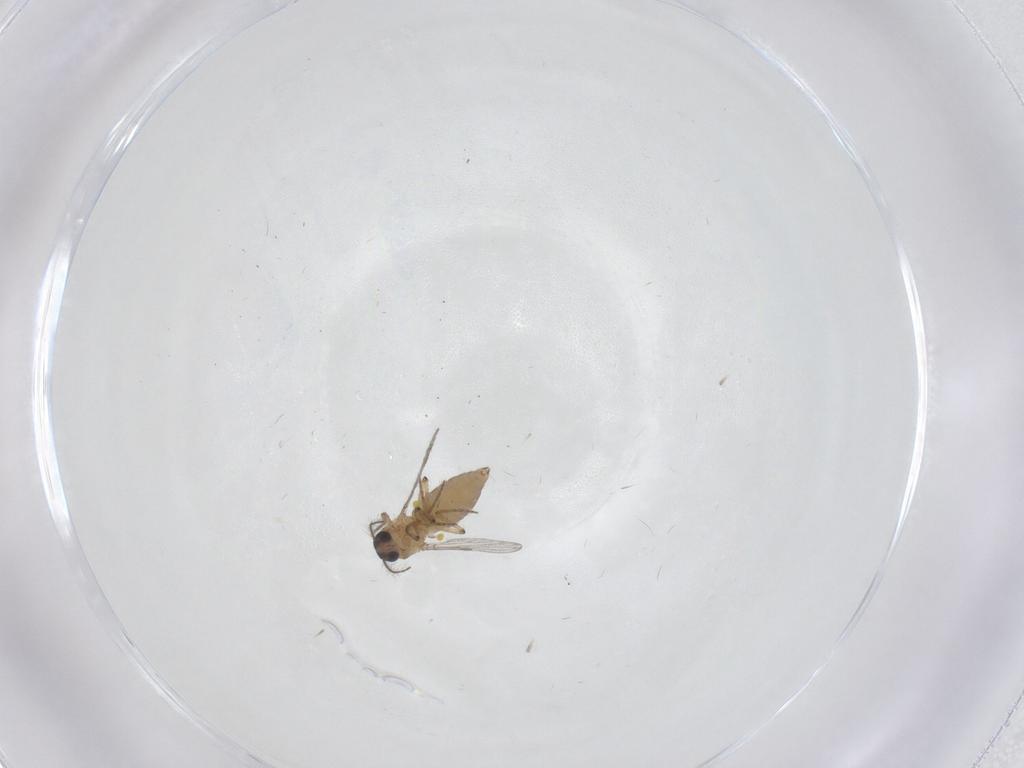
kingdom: Animalia
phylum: Arthropoda
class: Insecta
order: Diptera
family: Ceratopogonidae
